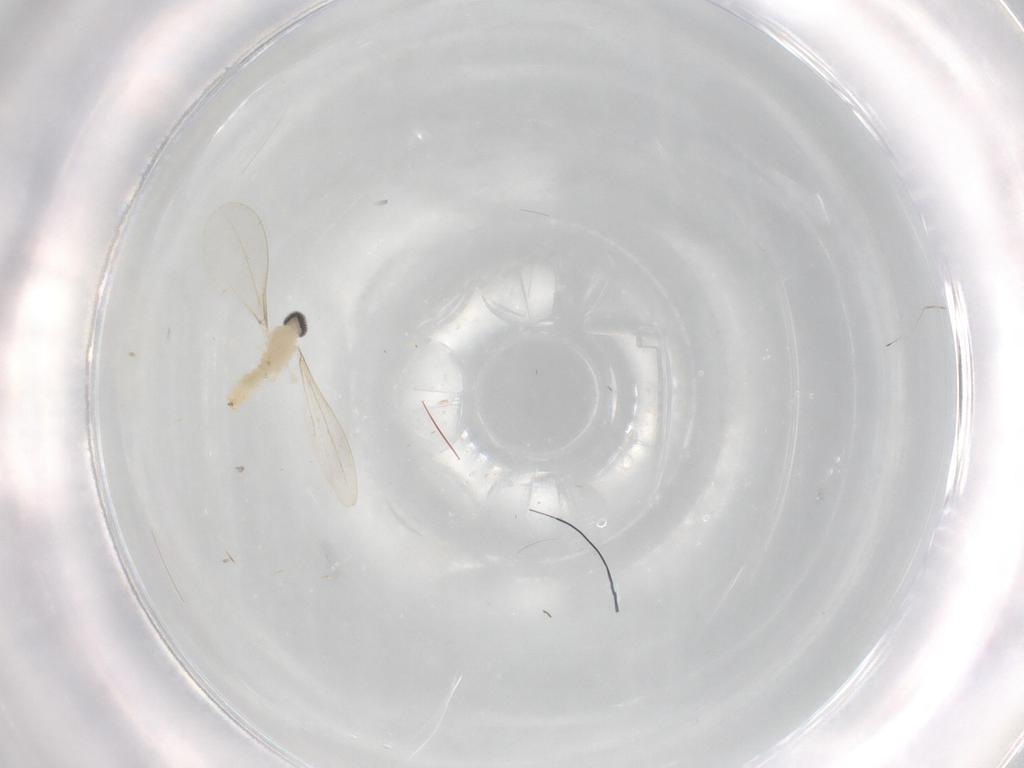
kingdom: Animalia
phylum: Arthropoda
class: Insecta
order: Diptera
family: Cecidomyiidae
